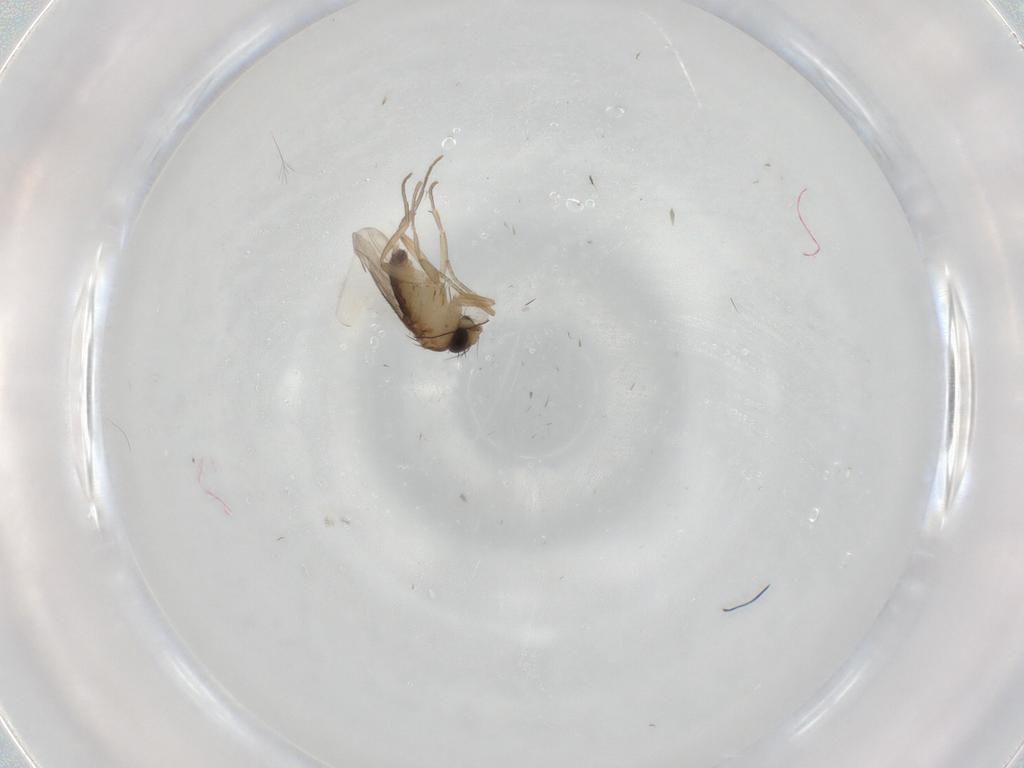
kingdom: Animalia
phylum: Arthropoda
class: Insecta
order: Diptera
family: Phoridae
